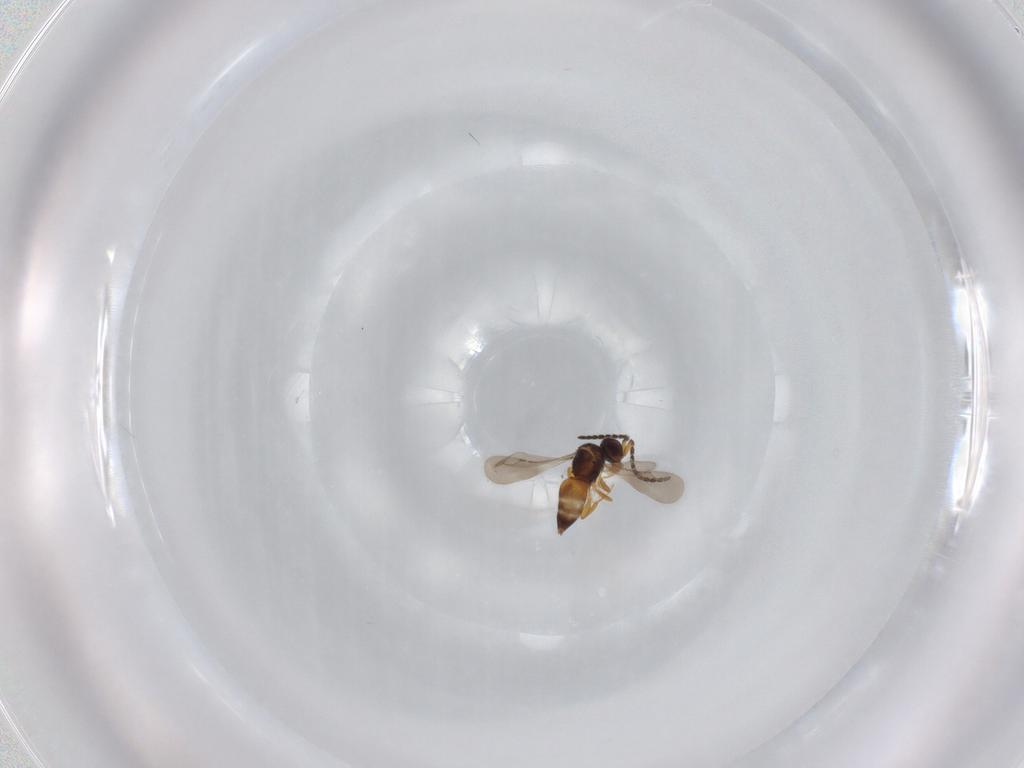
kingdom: Animalia
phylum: Arthropoda
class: Insecta
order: Hymenoptera
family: Ceraphronidae
